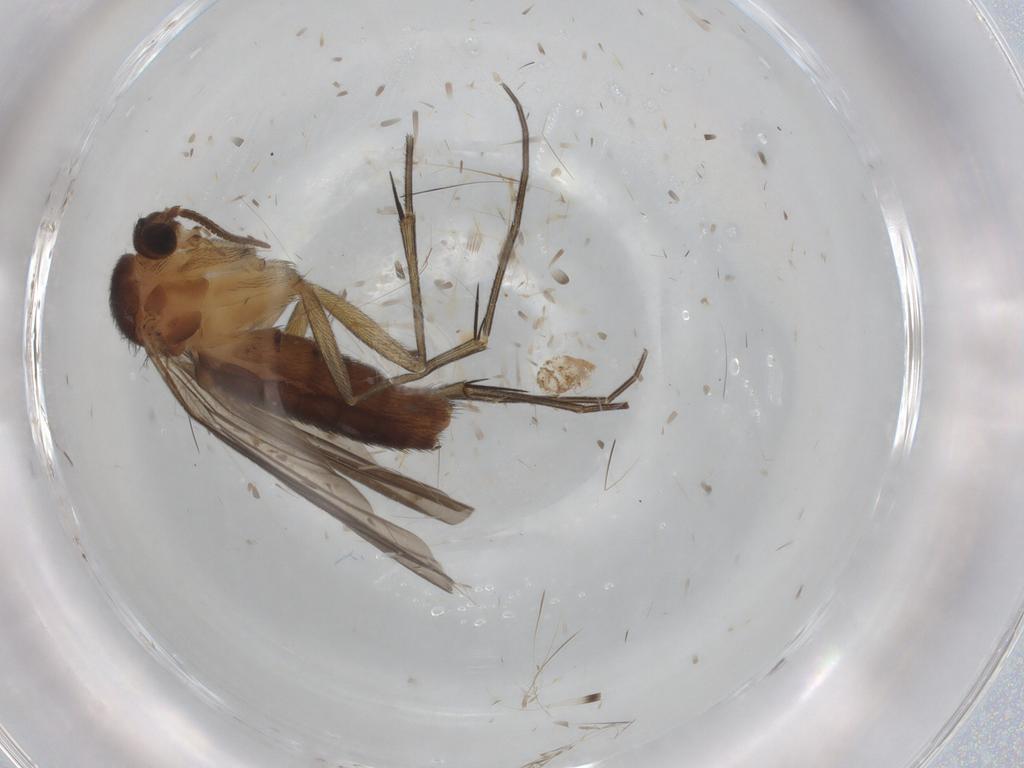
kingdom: Animalia
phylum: Arthropoda
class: Insecta
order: Diptera
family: Keroplatidae
